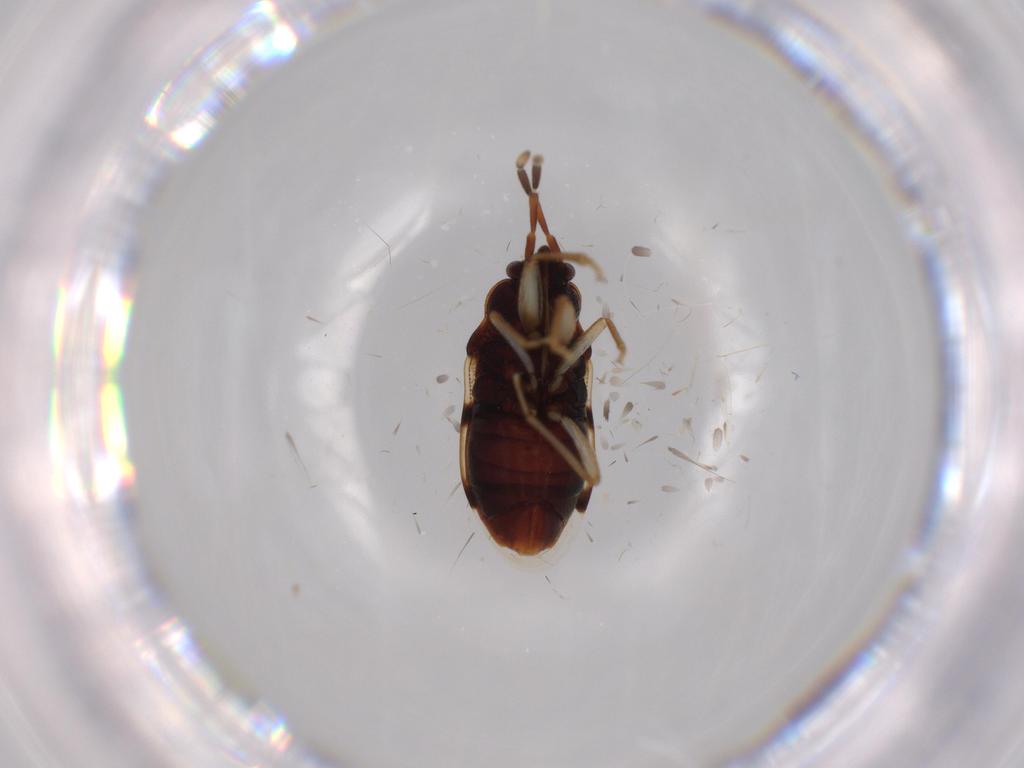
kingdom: Animalia
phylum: Arthropoda
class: Insecta
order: Hemiptera
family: Rhyparochromidae
